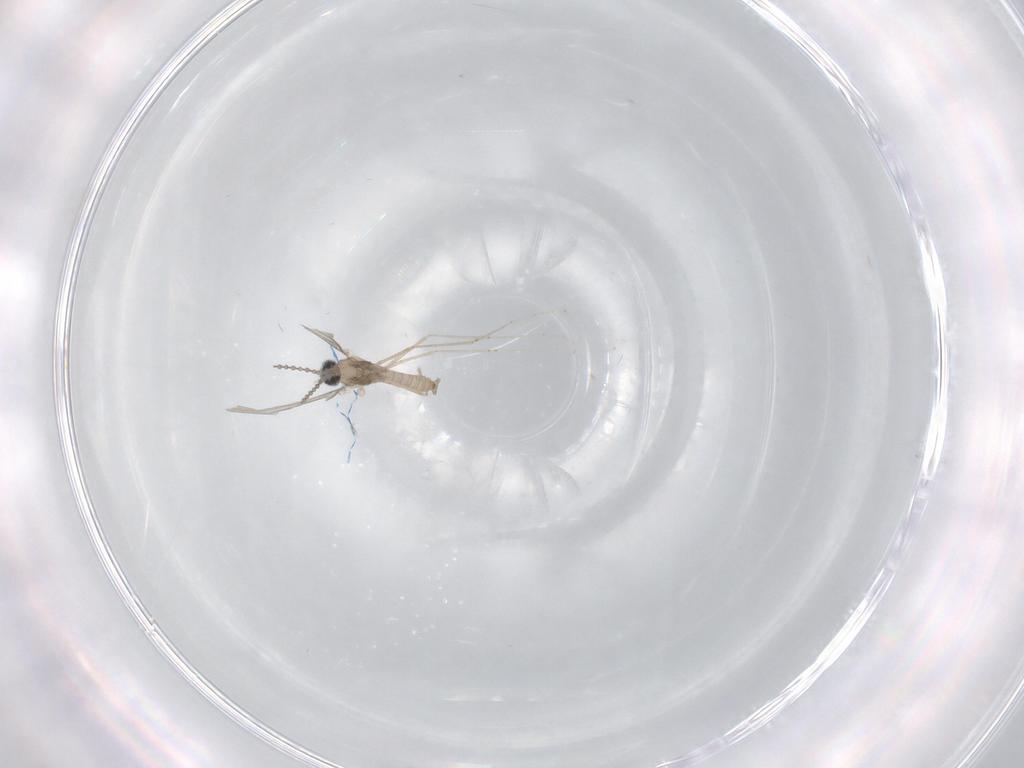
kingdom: Animalia
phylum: Arthropoda
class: Insecta
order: Diptera
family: Cecidomyiidae
